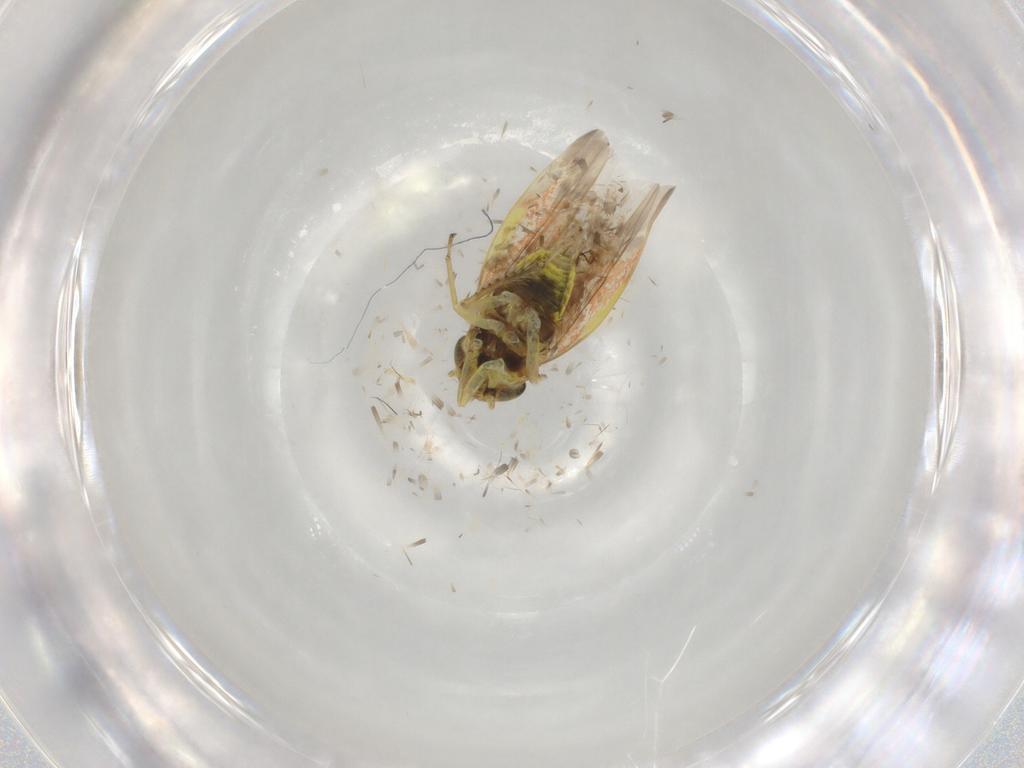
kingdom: Animalia
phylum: Arthropoda
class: Insecta
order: Hemiptera
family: Cicadellidae
